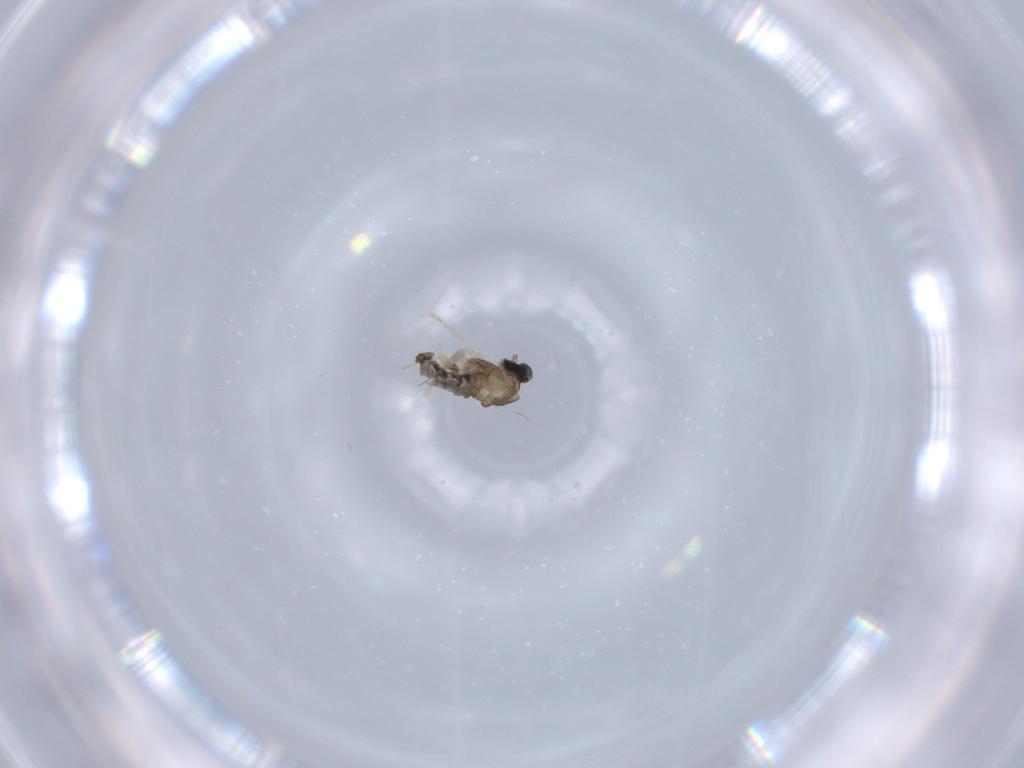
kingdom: Animalia
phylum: Arthropoda
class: Insecta
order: Diptera
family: Cecidomyiidae
